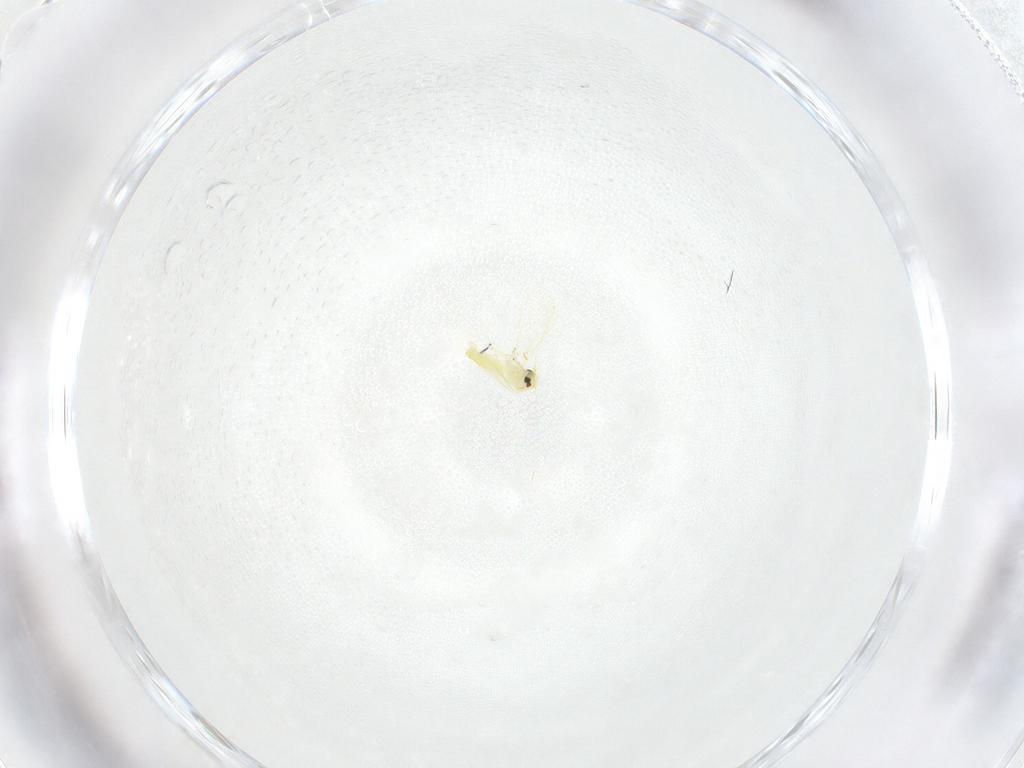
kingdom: Animalia
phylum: Arthropoda
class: Insecta
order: Hemiptera
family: Aleyrodidae
